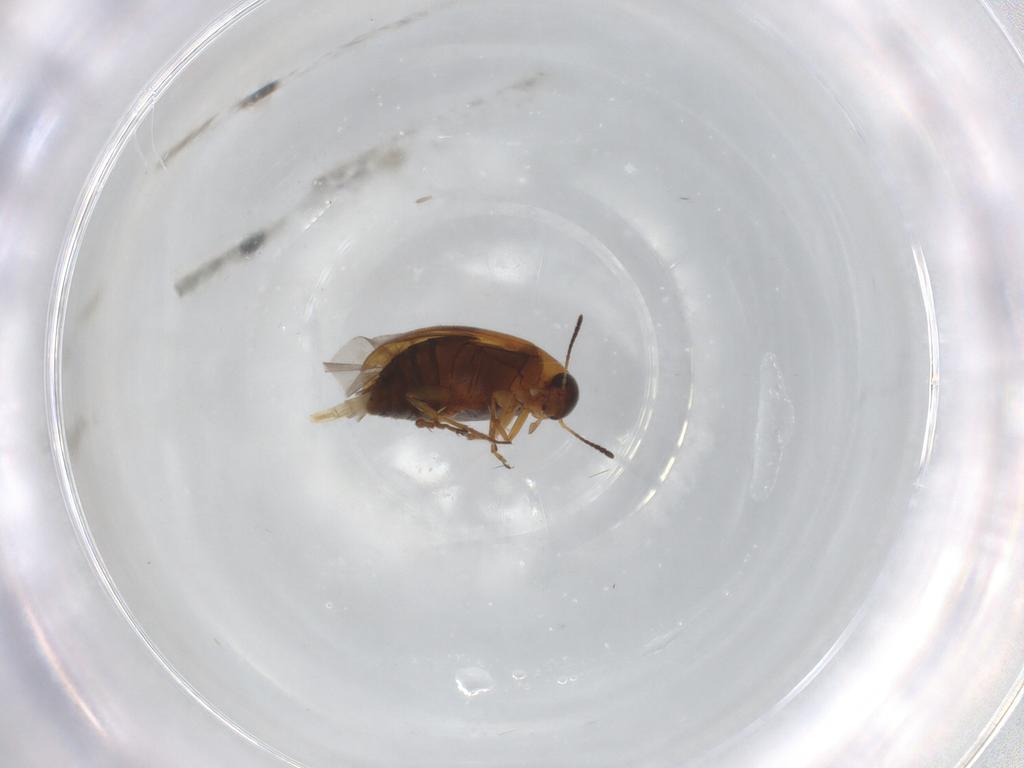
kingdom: Animalia
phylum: Arthropoda
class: Insecta
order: Coleoptera
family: Scraptiidae
